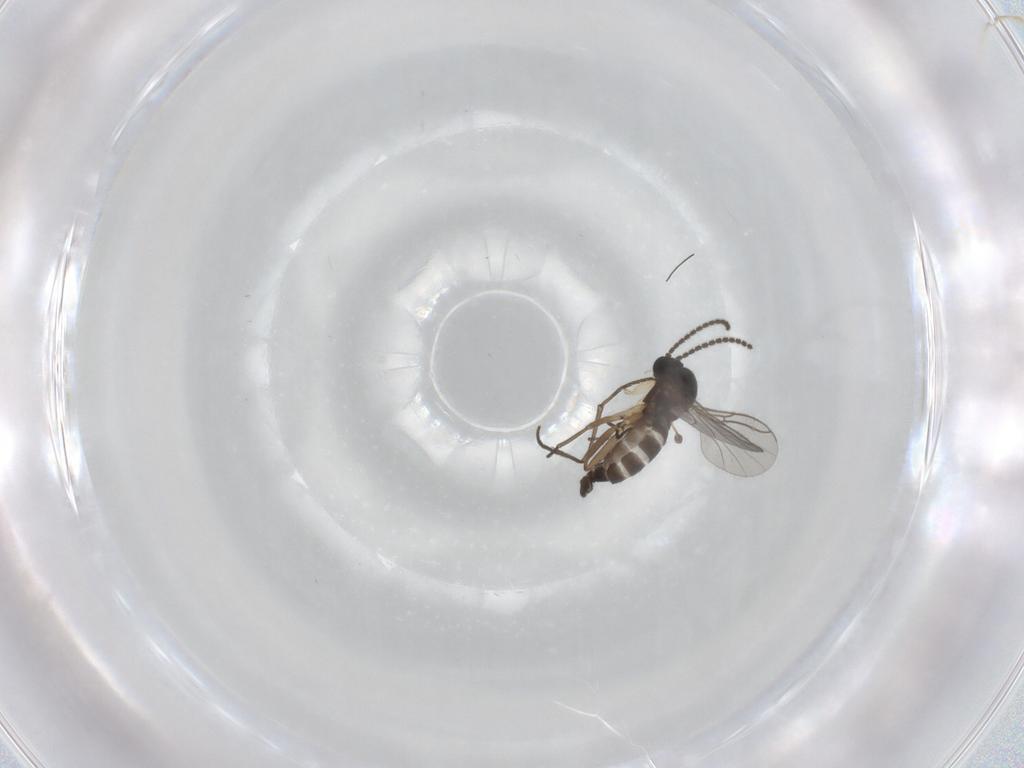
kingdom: Animalia
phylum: Arthropoda
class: Insecta
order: Diptera
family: Sciaridae
